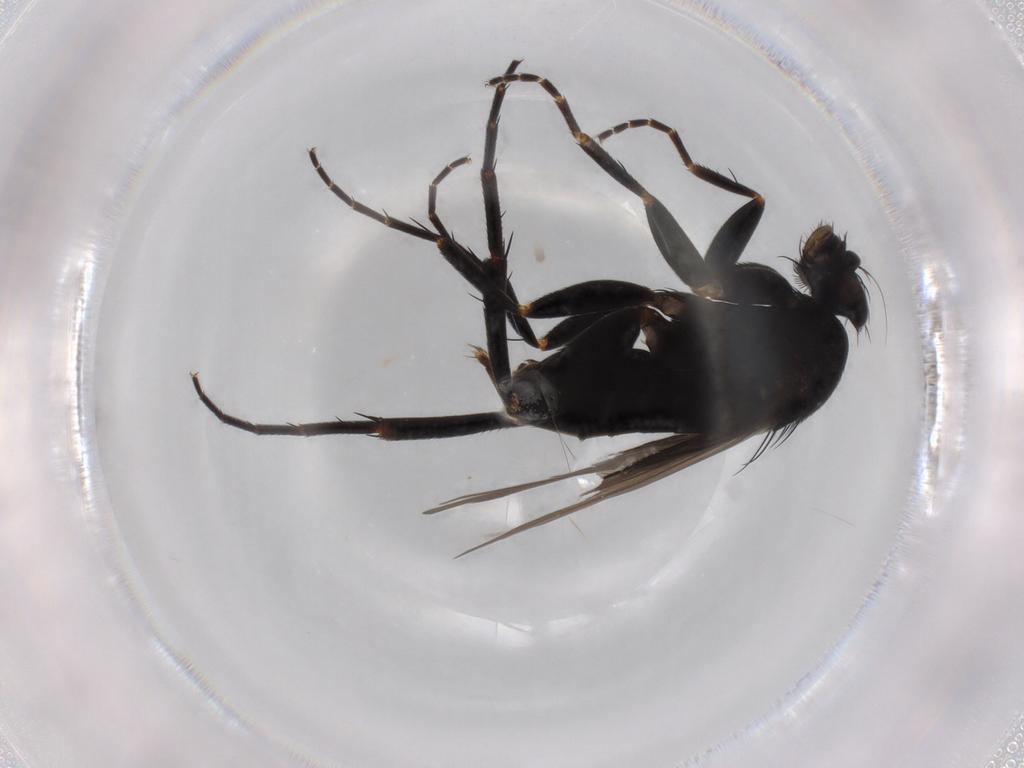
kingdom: Animalia
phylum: Arthropoda
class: Insecta
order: Diptera
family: Phoridae
